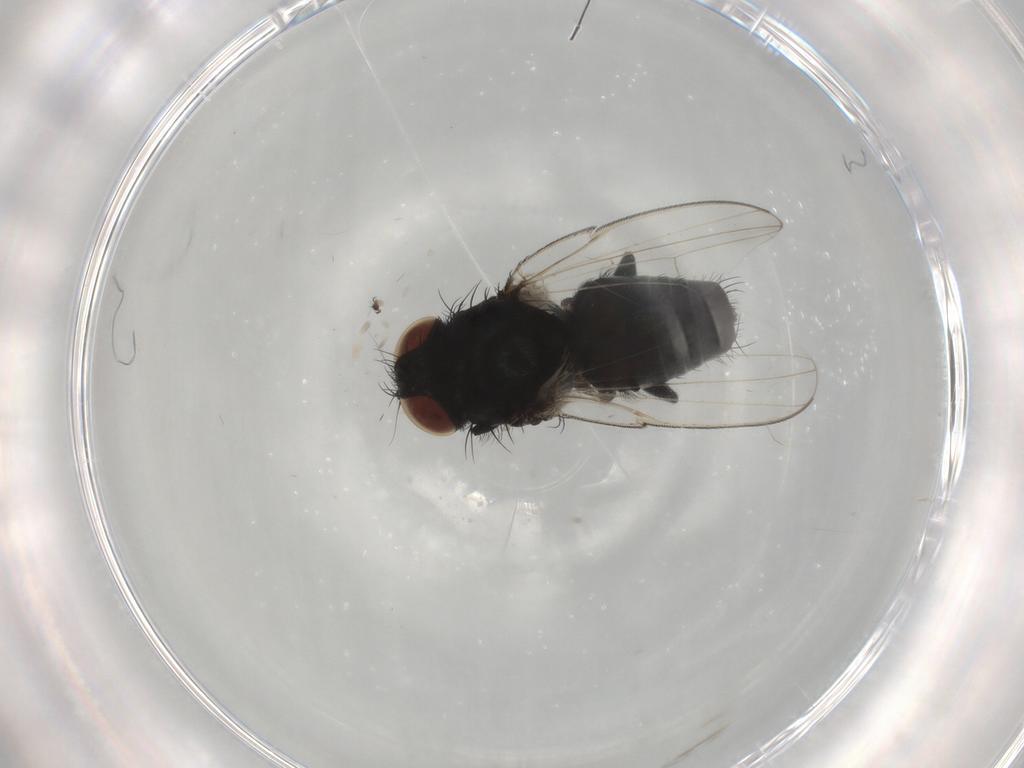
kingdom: Animalia
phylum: Arthropoda
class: Insecta
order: Diptera
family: Milichiidae
